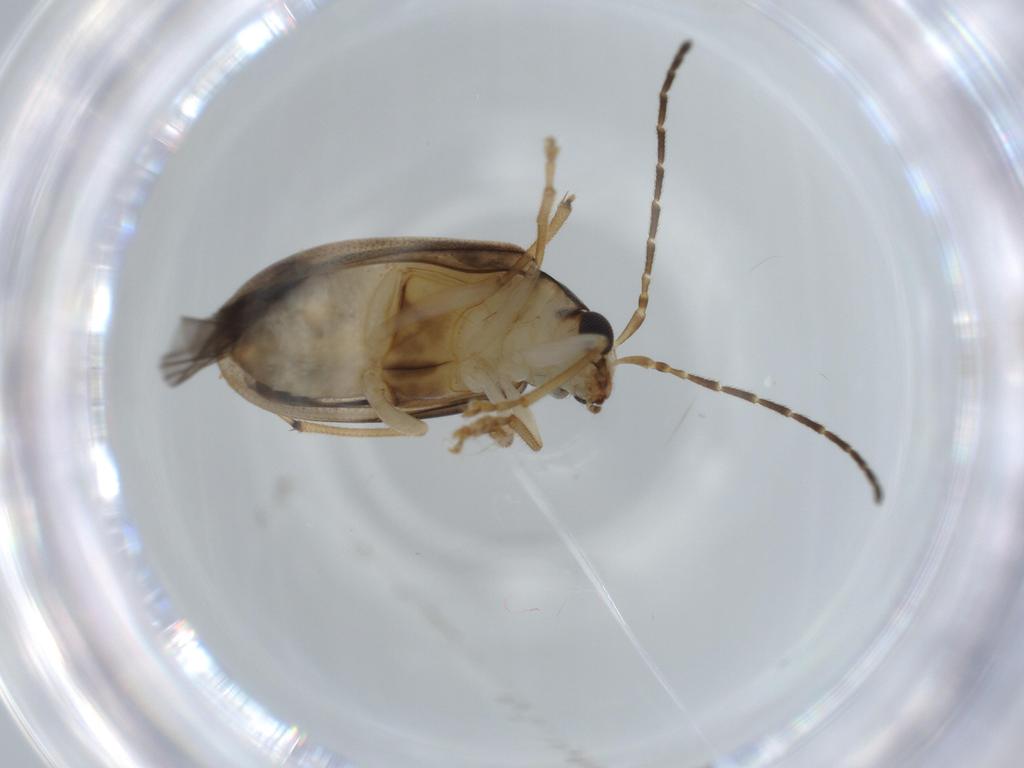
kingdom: Animalia
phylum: Arthropoda
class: Insecta
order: Coleoptera
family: Chrysomelidae
